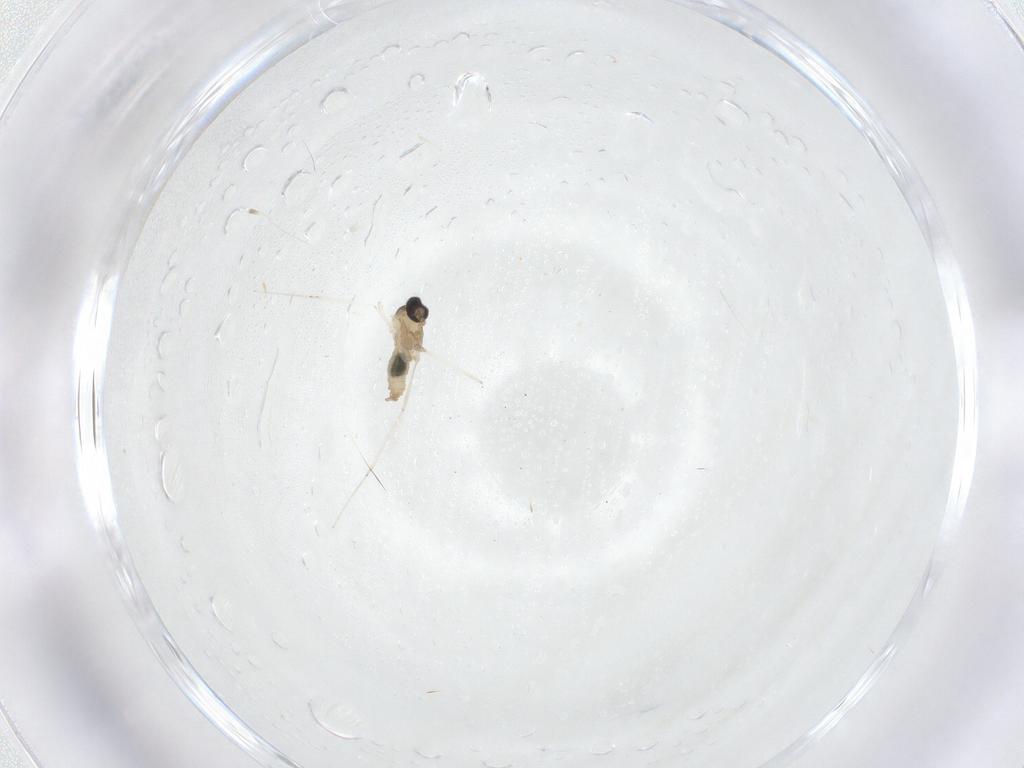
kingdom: Animalia
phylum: Arthropoda
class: Insecta
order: Diptera
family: Cecidomyiidae
